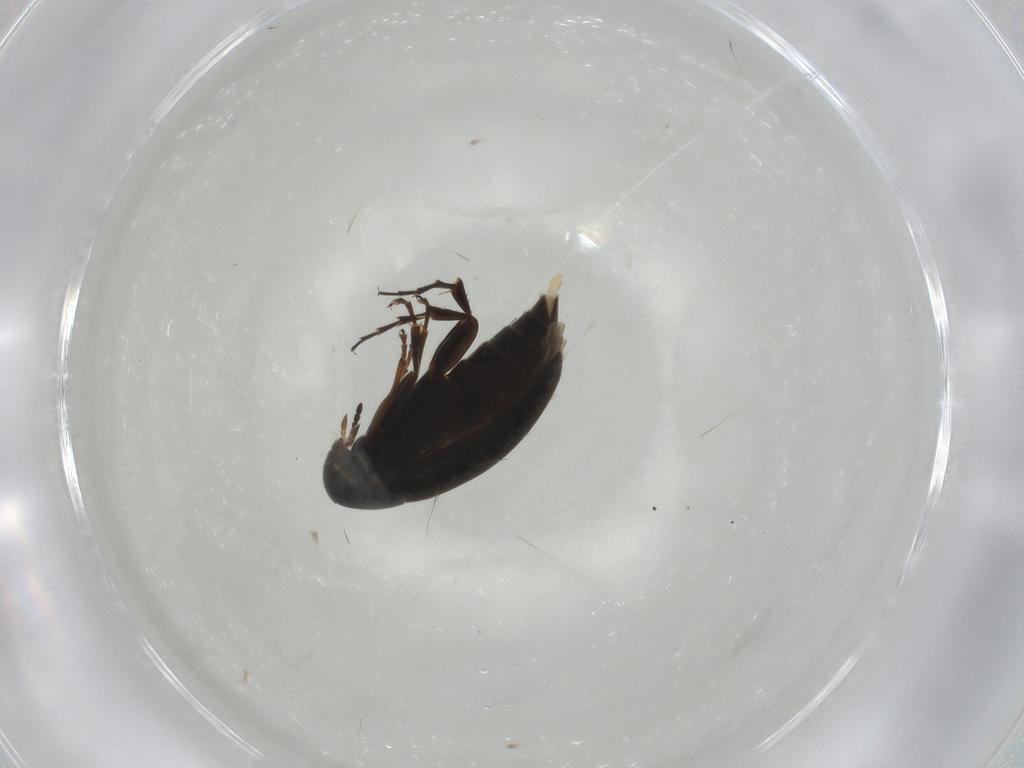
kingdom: Animalia
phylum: Arthropoda
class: Insecta
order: Coleoptera
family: Scraptiidae
